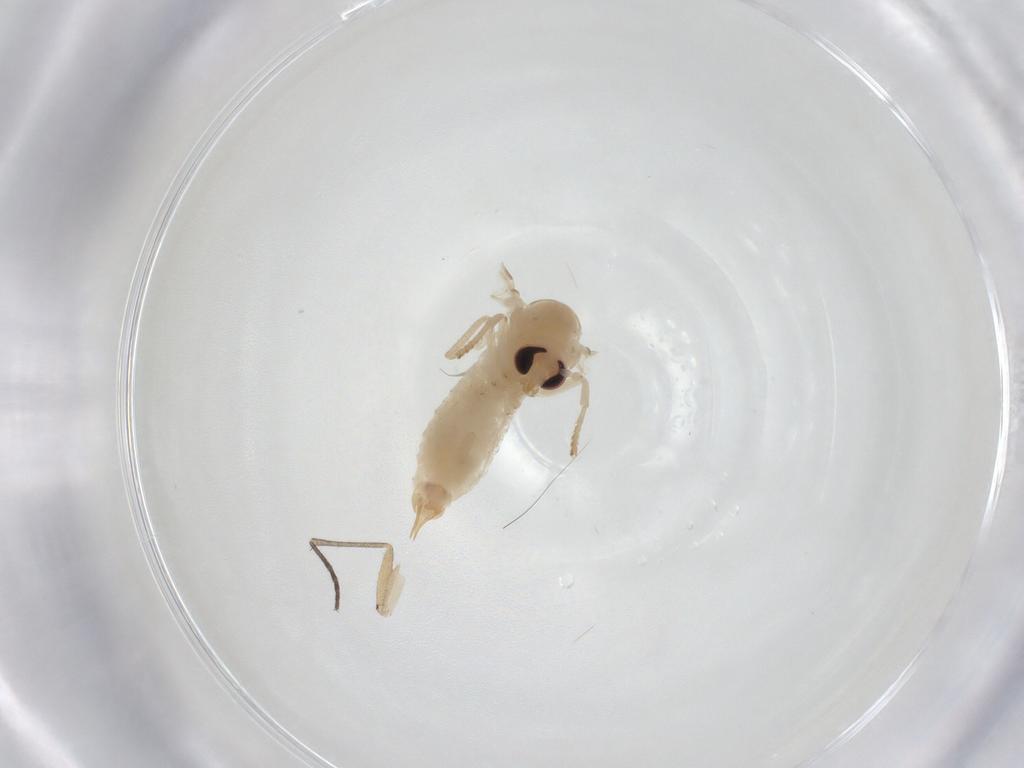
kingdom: Animalia
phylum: Arthropoda
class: Insecta
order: Diptera
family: Psychodidae
